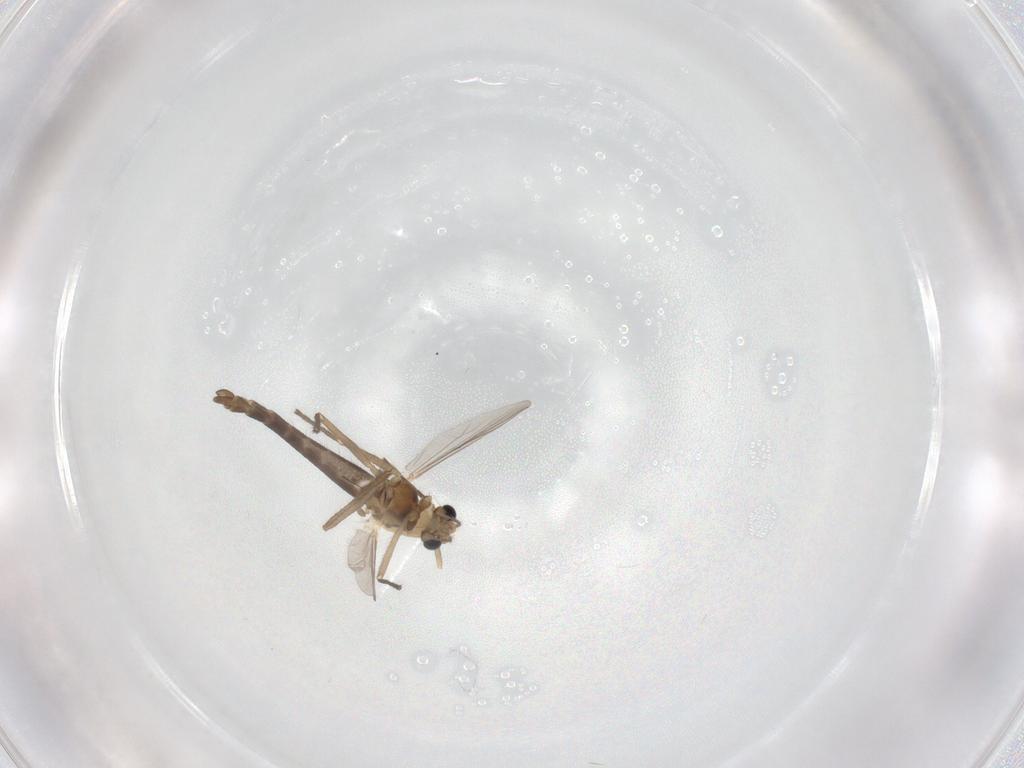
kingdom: Animalia
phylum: Arthropoda
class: Insecta
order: Diptera
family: Chironomidae
